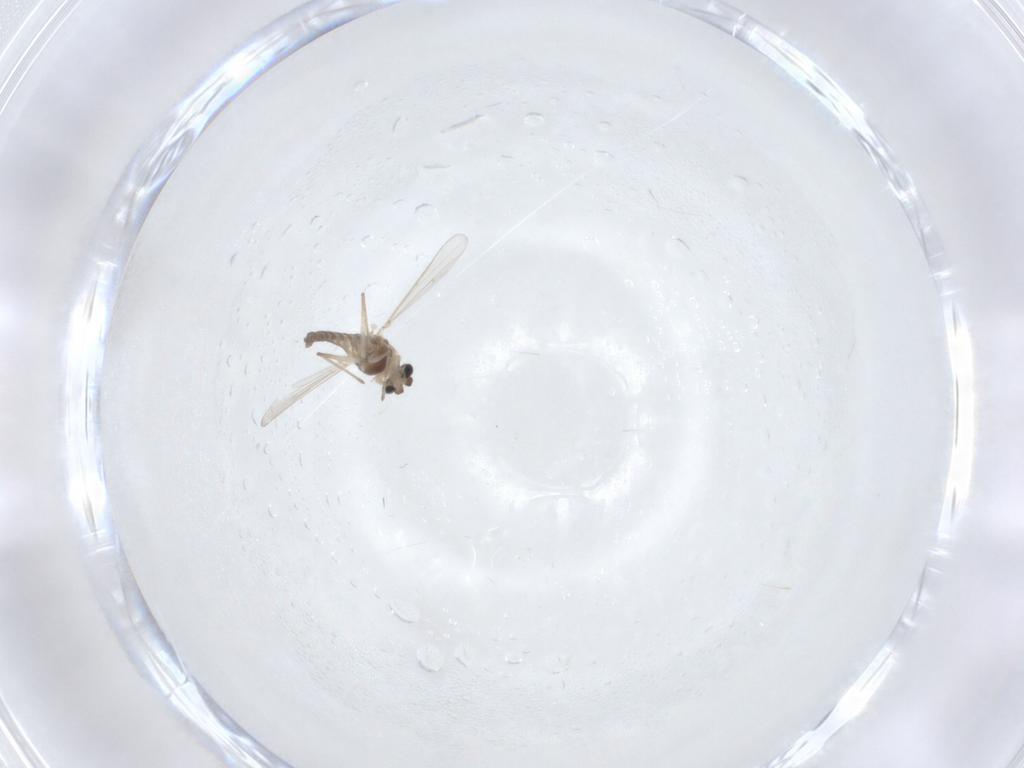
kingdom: Animalia
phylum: Arthropoda
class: Insecta
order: Diptera
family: Chironomidae
